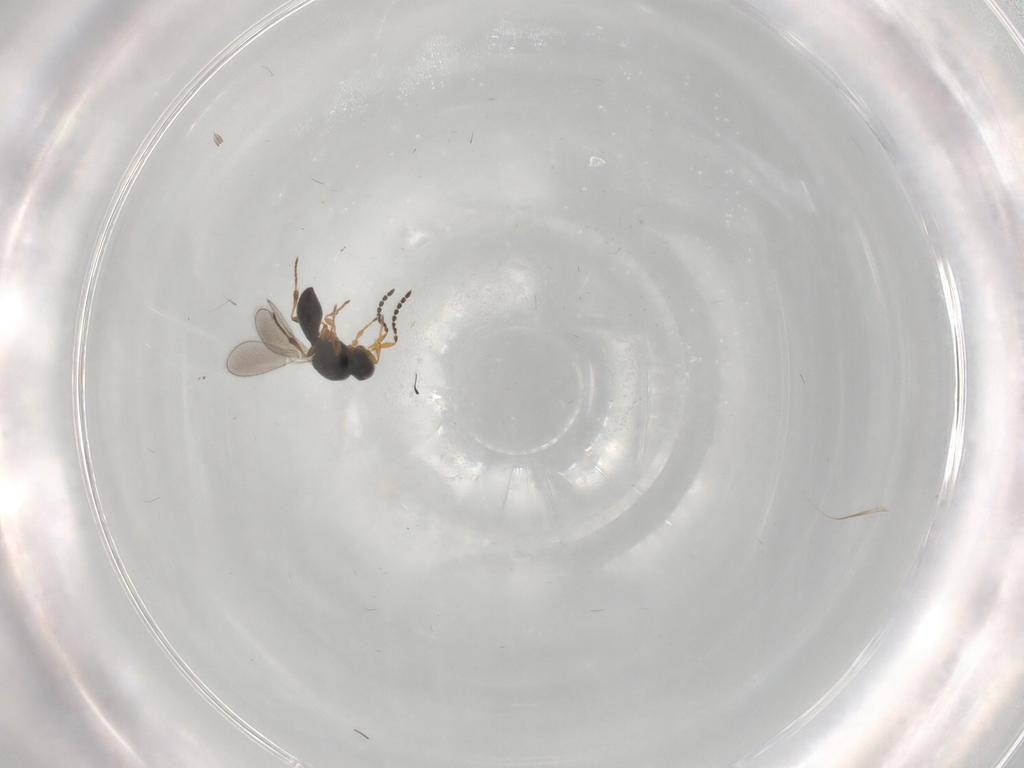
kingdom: Animalia
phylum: Arthropoda
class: Insecta
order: Hymenoptera
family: Platygastridae
